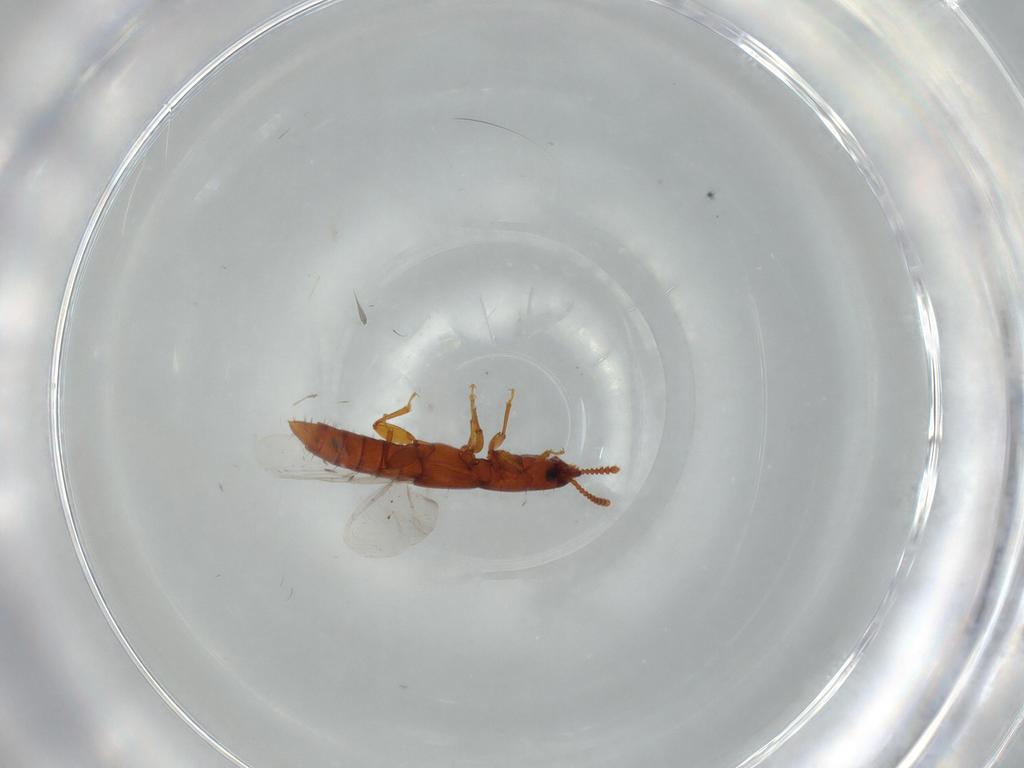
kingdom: Animalia
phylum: Arthropoda
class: Insecta
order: Coleoptera
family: Staphylinidae
